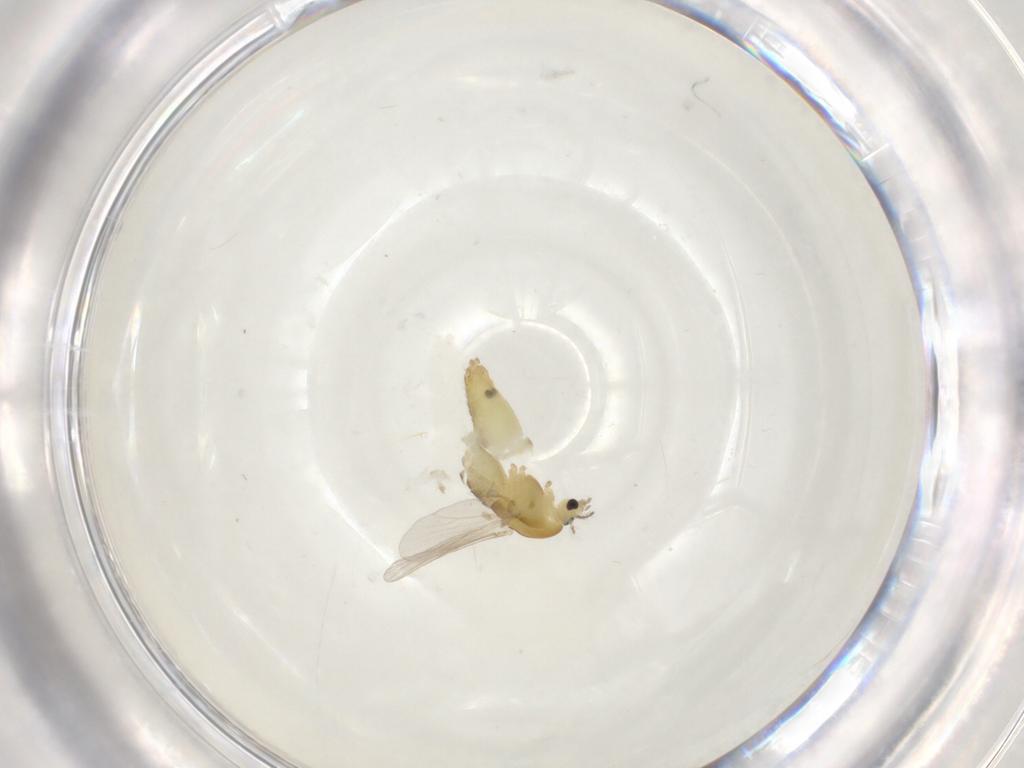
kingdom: Animalia
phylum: Arthropoda
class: Insecta
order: Diptera
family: Chironomidae
